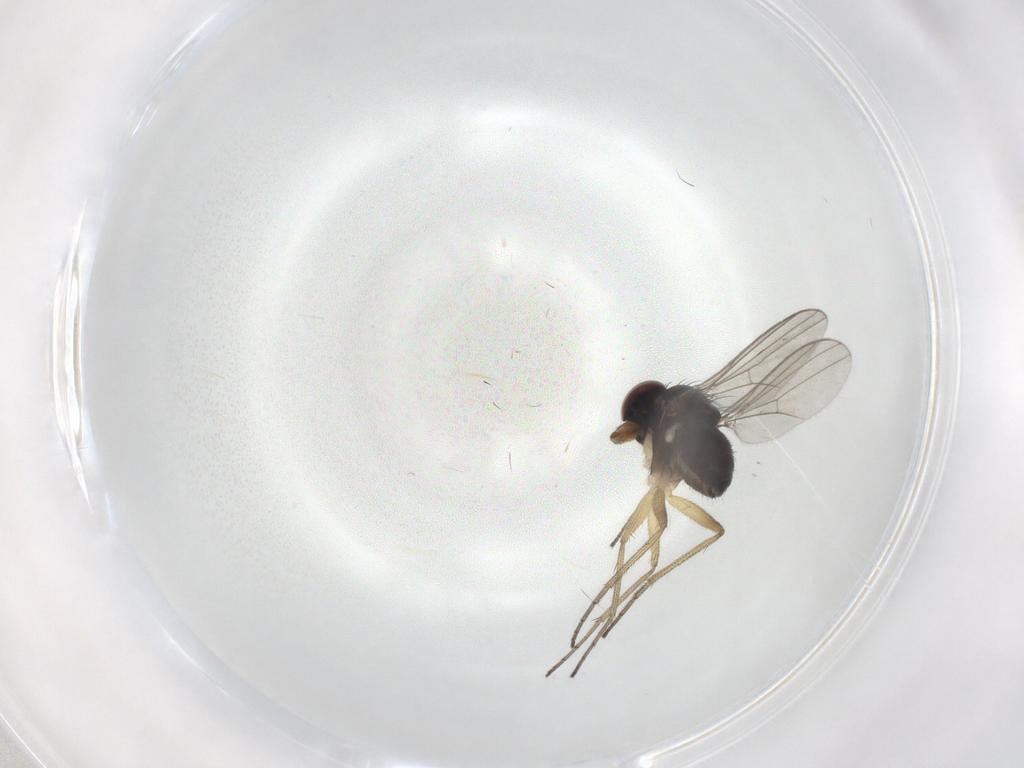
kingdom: Animalia
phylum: Arthropoda
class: Insecta
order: Diptera
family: Dolichopodidae
